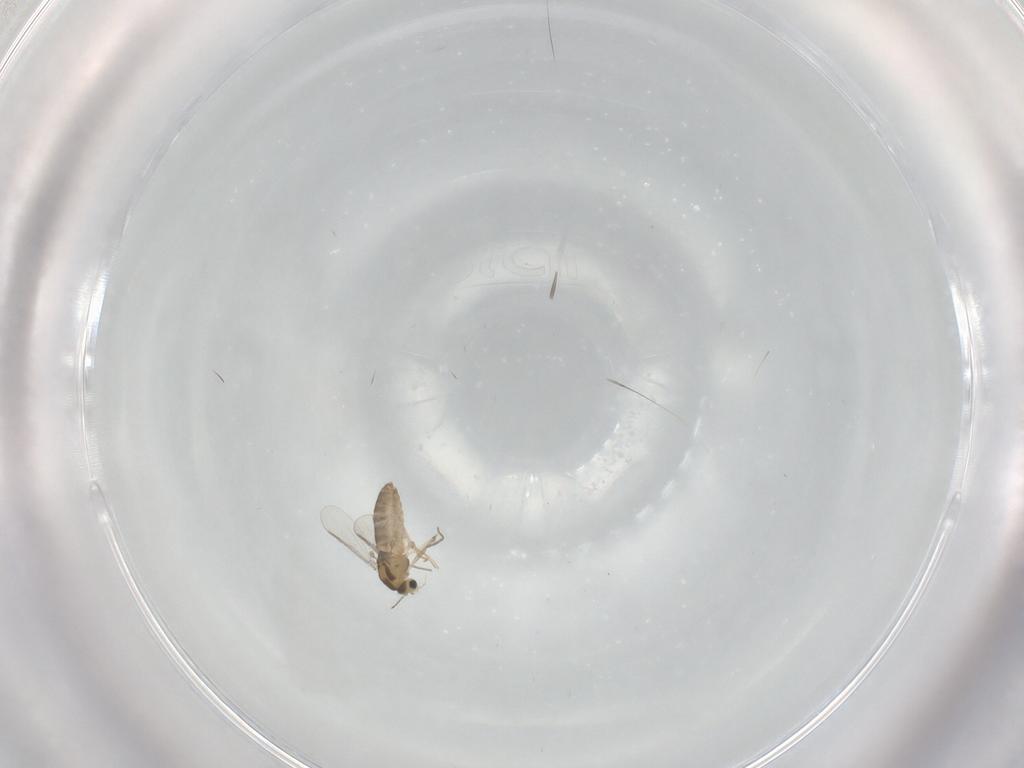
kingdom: Animalia
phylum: Arthropoda
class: Insecta
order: Diptera
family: Chironomidae
